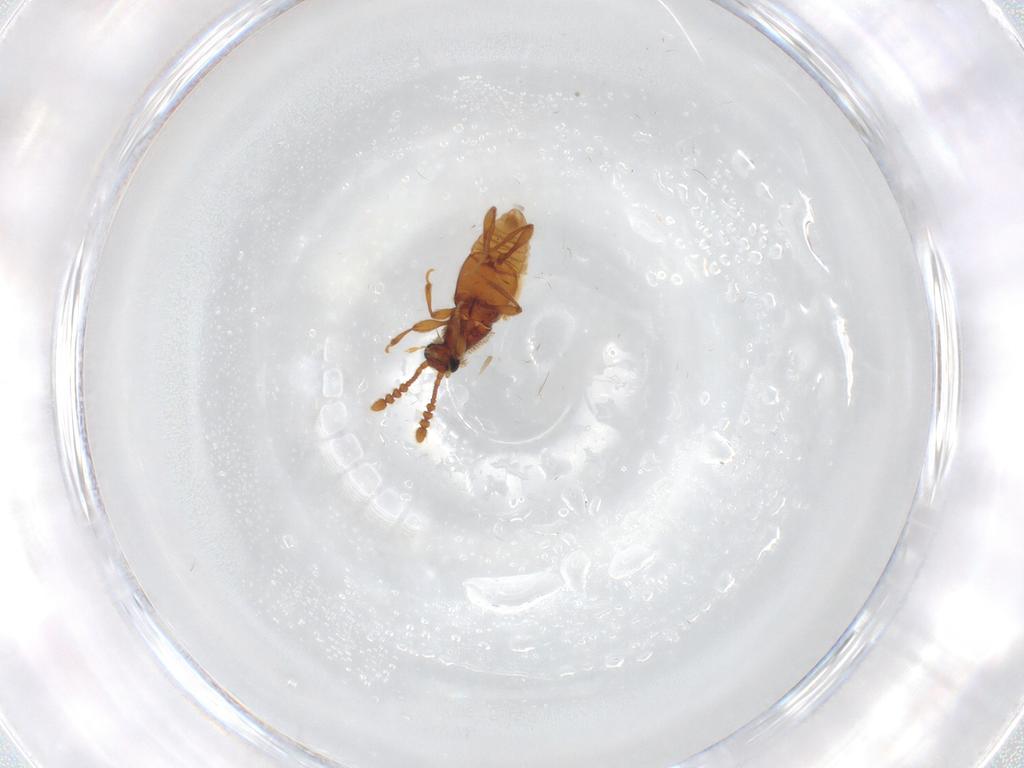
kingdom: Animalia
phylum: Arthropoda
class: Insecta
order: Coleoptera
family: Staphylinidae
